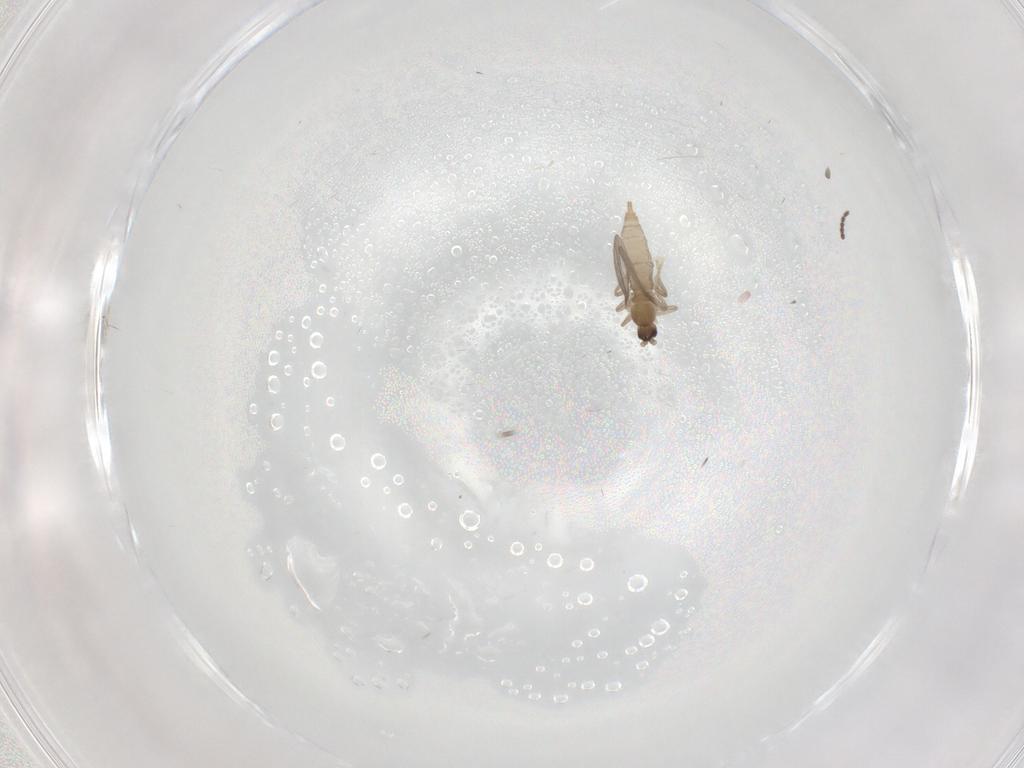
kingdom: Animalia
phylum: Arthropoda
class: Insecta
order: Diptera
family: Cecidomyiidae
